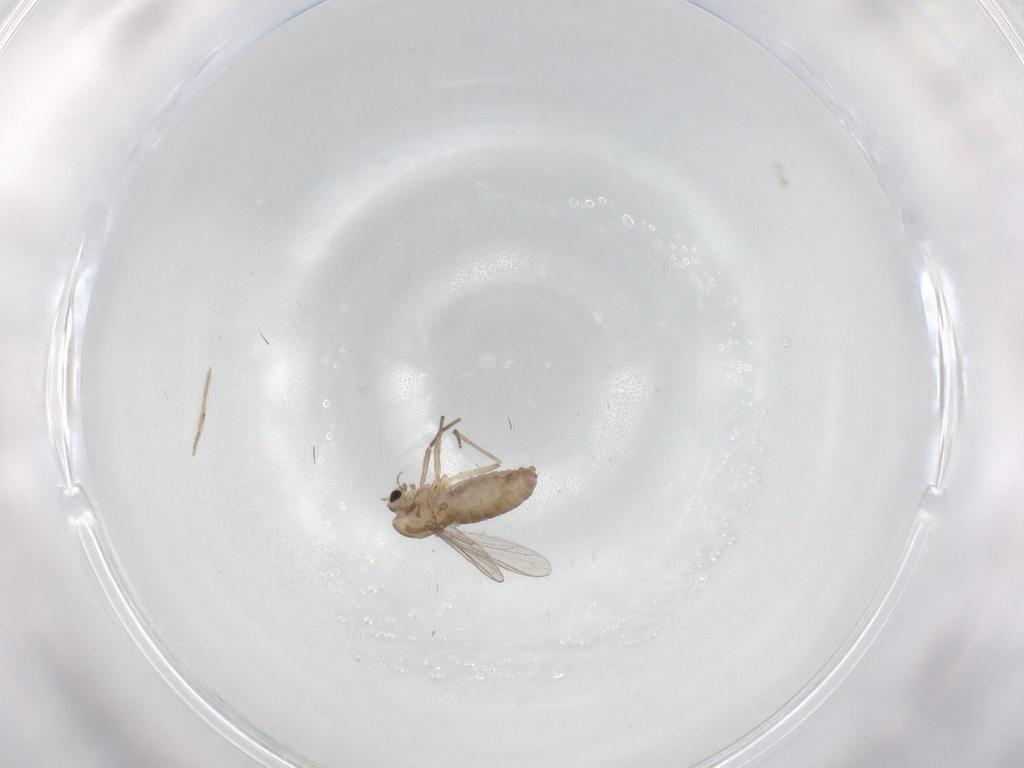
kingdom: Animalia
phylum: Arthropoda
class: Insecta
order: Diptera
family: Chironomidae
